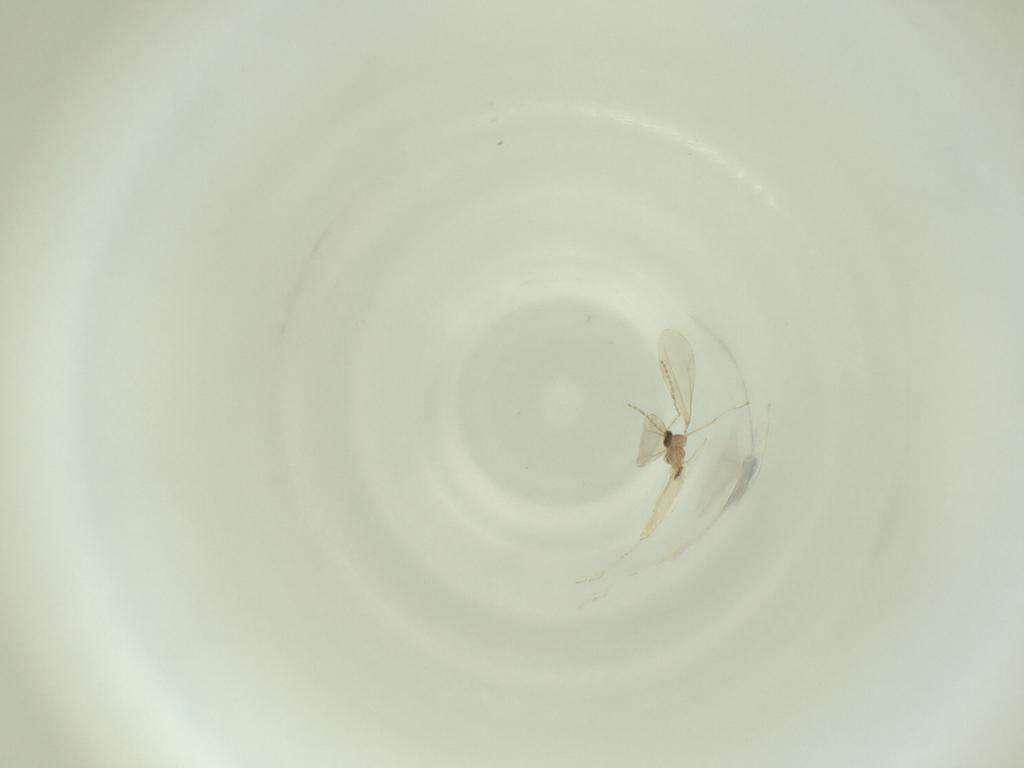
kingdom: Animalia
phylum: Arthropoda
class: Insecta
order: Diptera
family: Cecidomyiidae
